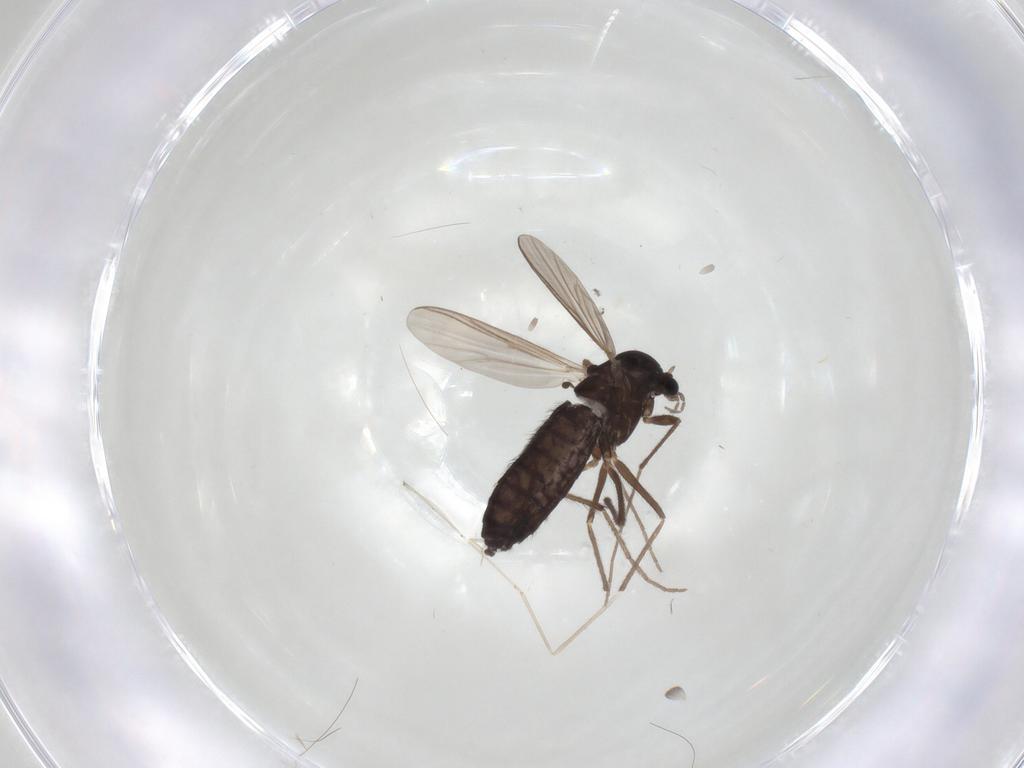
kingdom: Animalia
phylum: Arthropoda
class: Insecta
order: Diptera
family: Chironomidae
